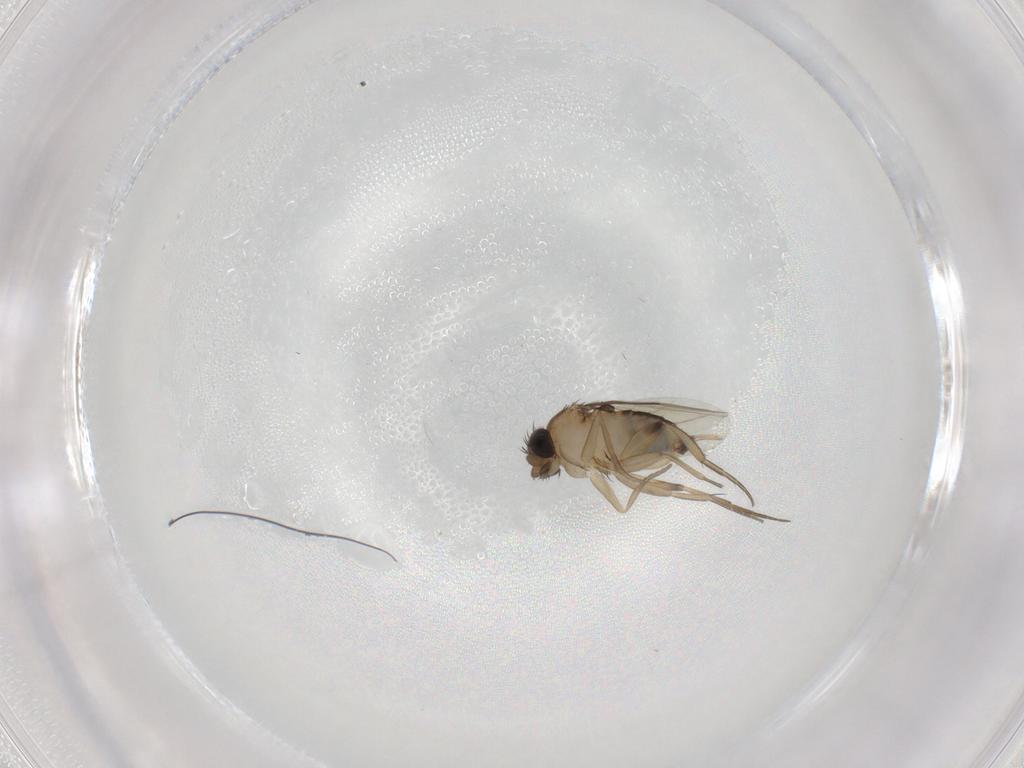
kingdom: Animalia
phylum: Arthropoda
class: Insecta
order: Diptera
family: Phoridae
